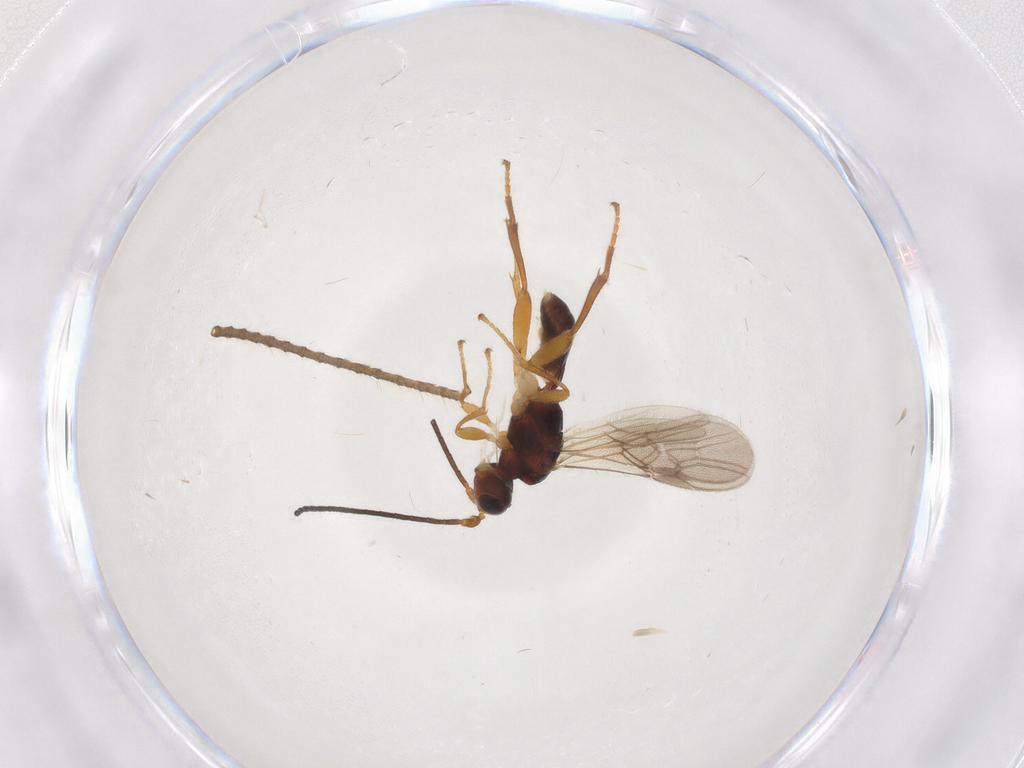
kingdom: Animalia
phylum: Arthropoda
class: Insecta
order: Hymenoptera
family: Braconidae
